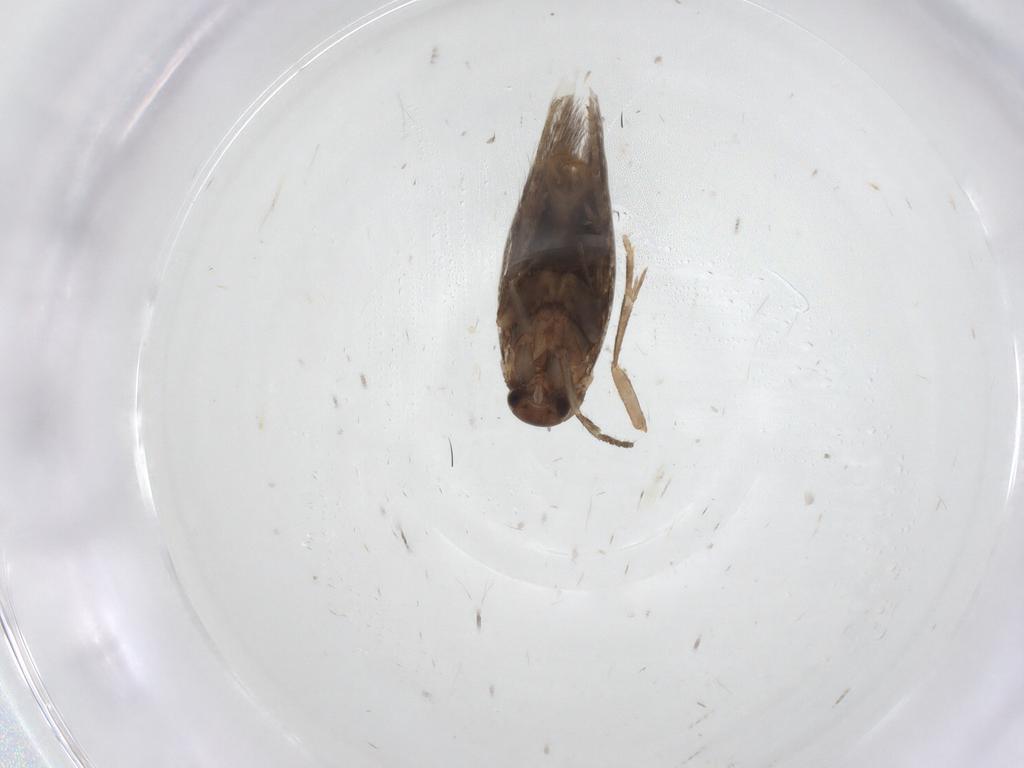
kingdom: Animalia
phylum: Arthropoda
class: Insecta
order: Lepidoptera
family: Elachistidae
